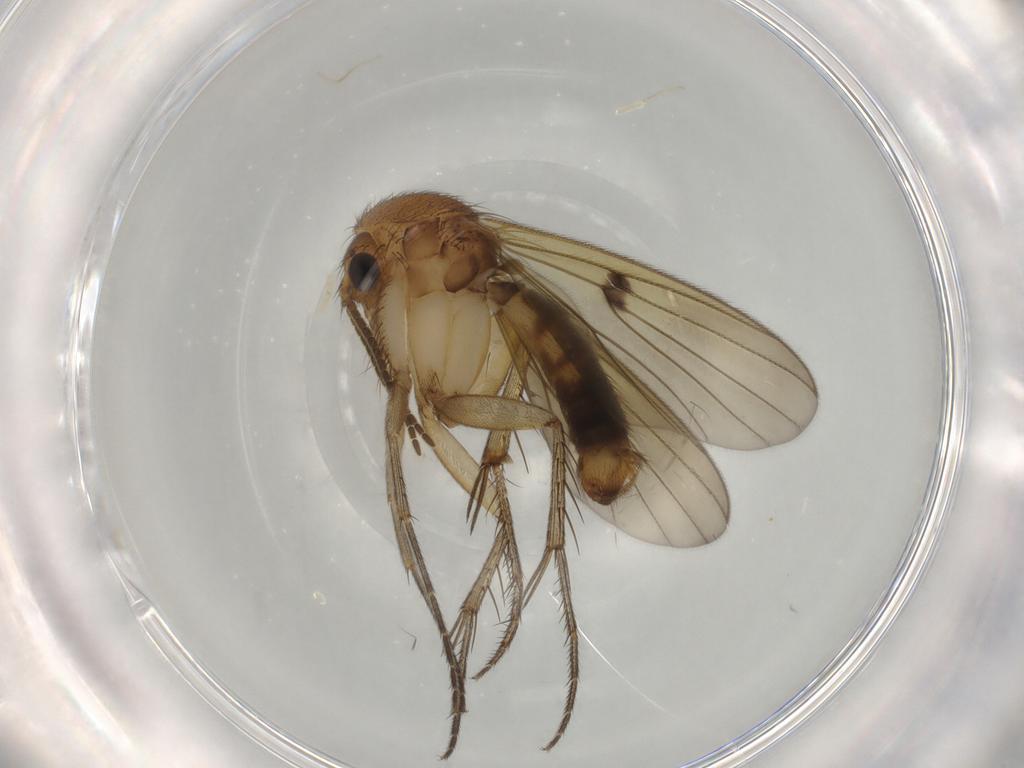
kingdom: Animalia
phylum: Arthropoda
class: Insecta
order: Diptera
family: Mycetophilidae
